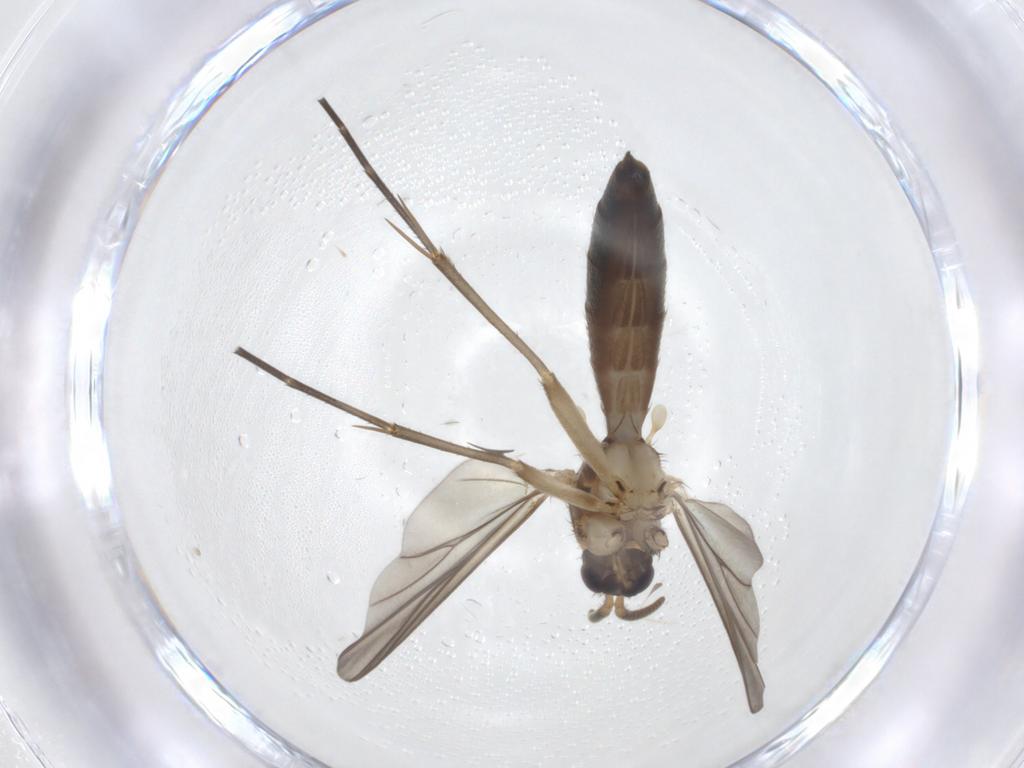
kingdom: Animalia
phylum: Arthropoda
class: Insecta
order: Diptera
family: Mycetophilidae
